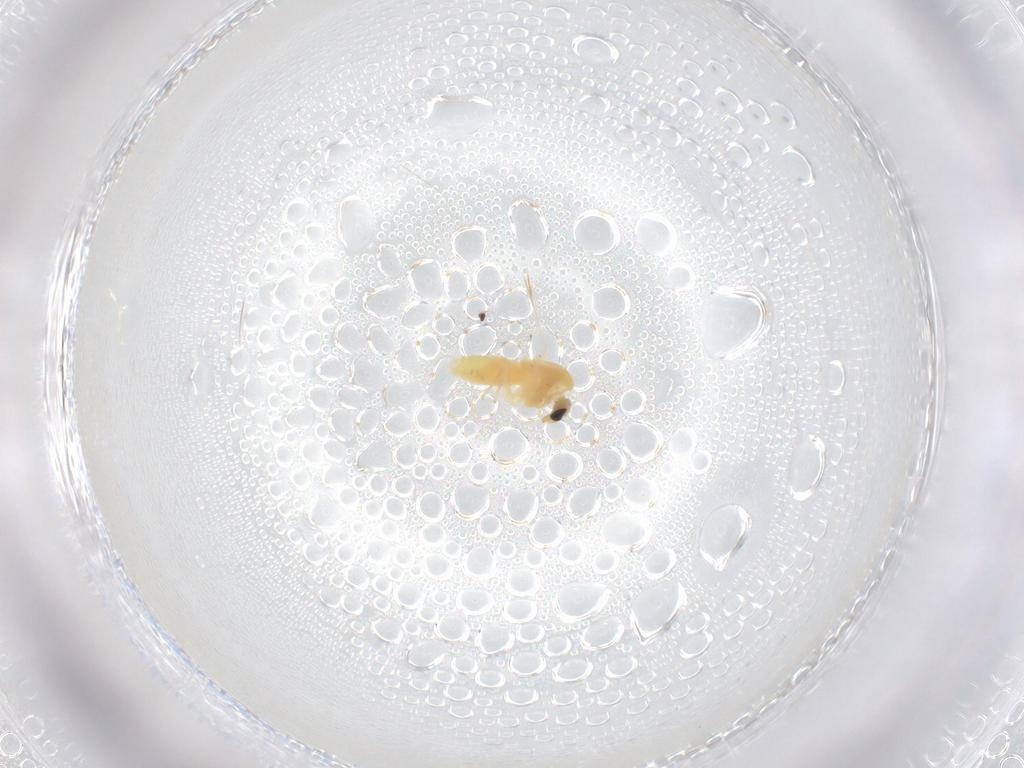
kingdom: Animalia
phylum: Arthropoda
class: Insecta
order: Diptera
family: Chironomidae
